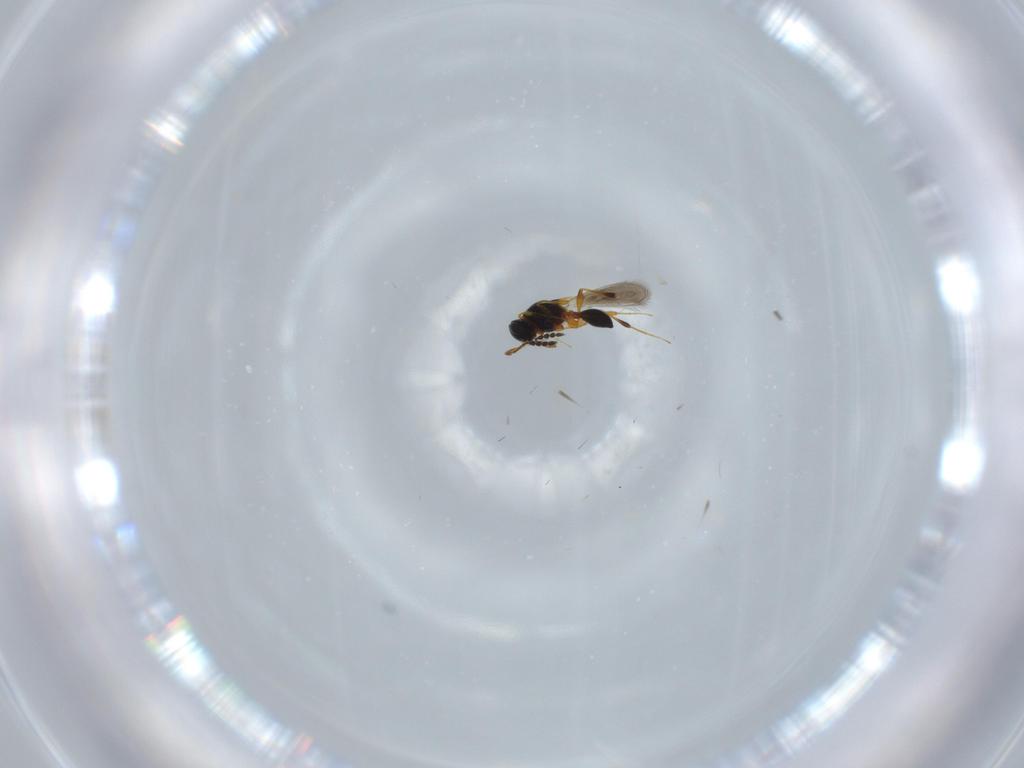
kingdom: Animalia
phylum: Arthropoda
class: Insecta
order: Hymenoptera
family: Platygastridae
